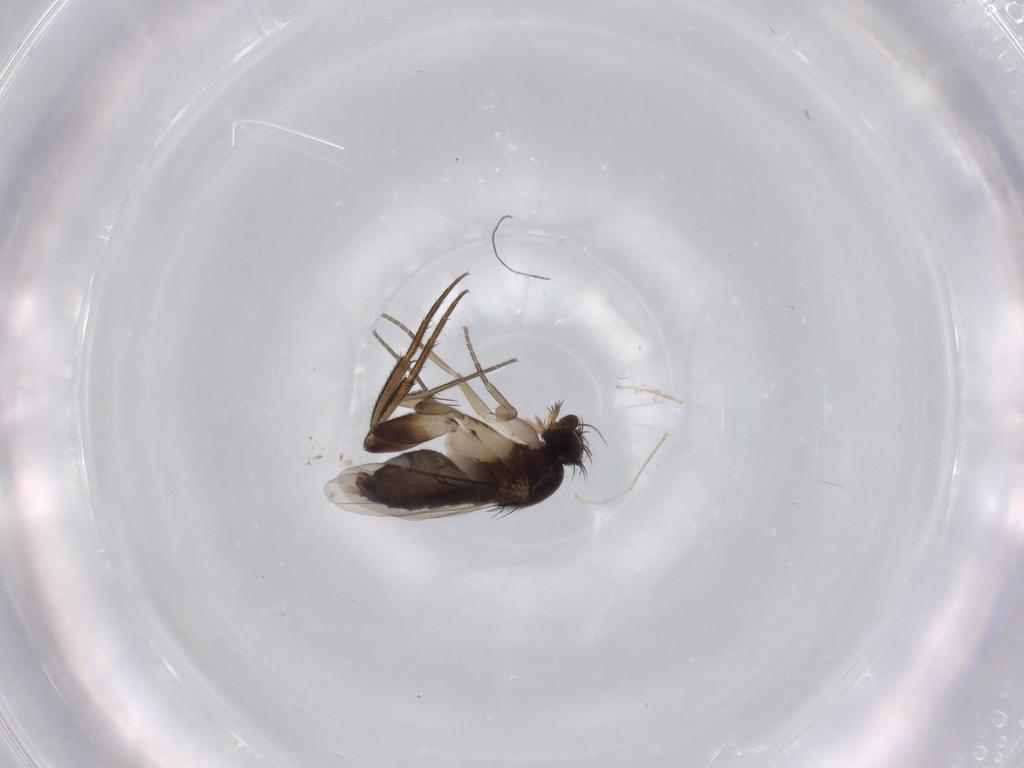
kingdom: Animalia
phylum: Arthropoda
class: Insecta
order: Diptera
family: Phoridae
